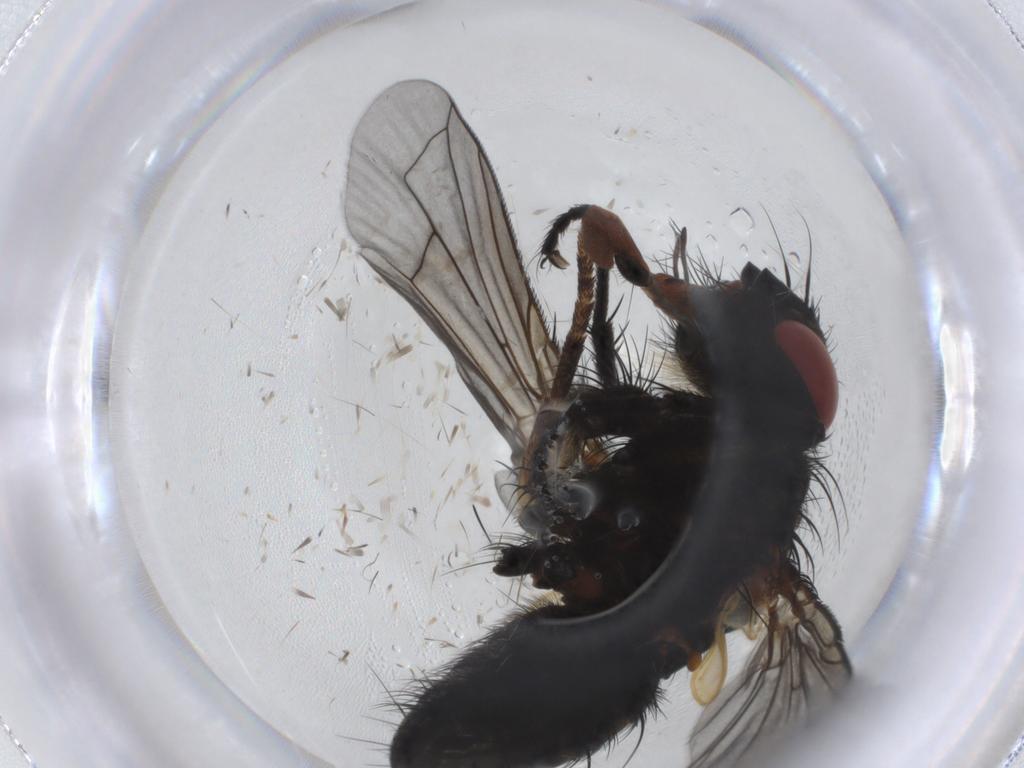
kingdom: Animalia
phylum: Arthropoda
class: Insecta
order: Diptera
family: Tachinidae
